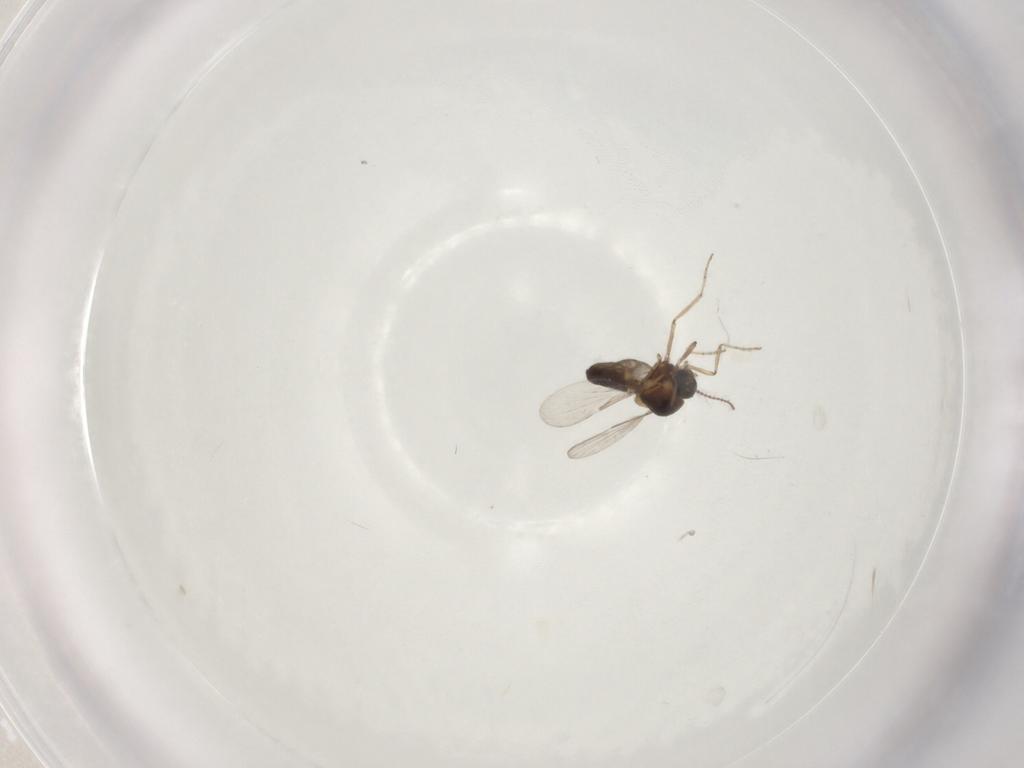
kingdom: Animalia
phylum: Arthropoda
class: Insecta
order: Diptera
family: Ceratopogonidae
